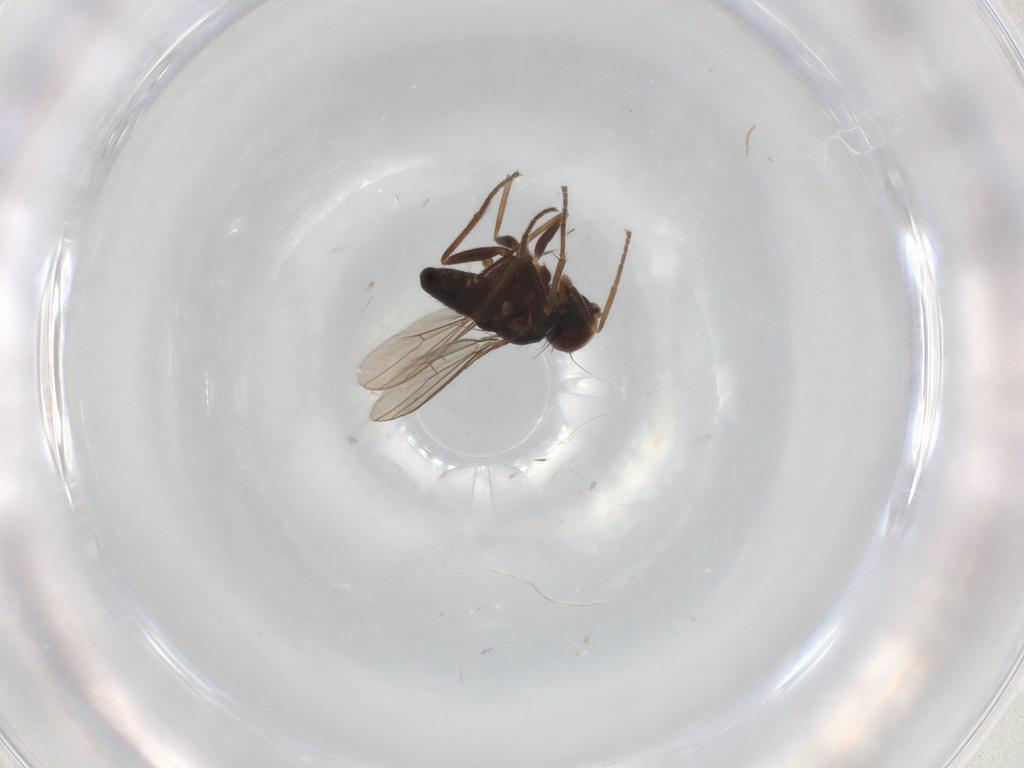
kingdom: Animalia
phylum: Arthropoda
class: Insecta
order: Diptera
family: Chironomidae
